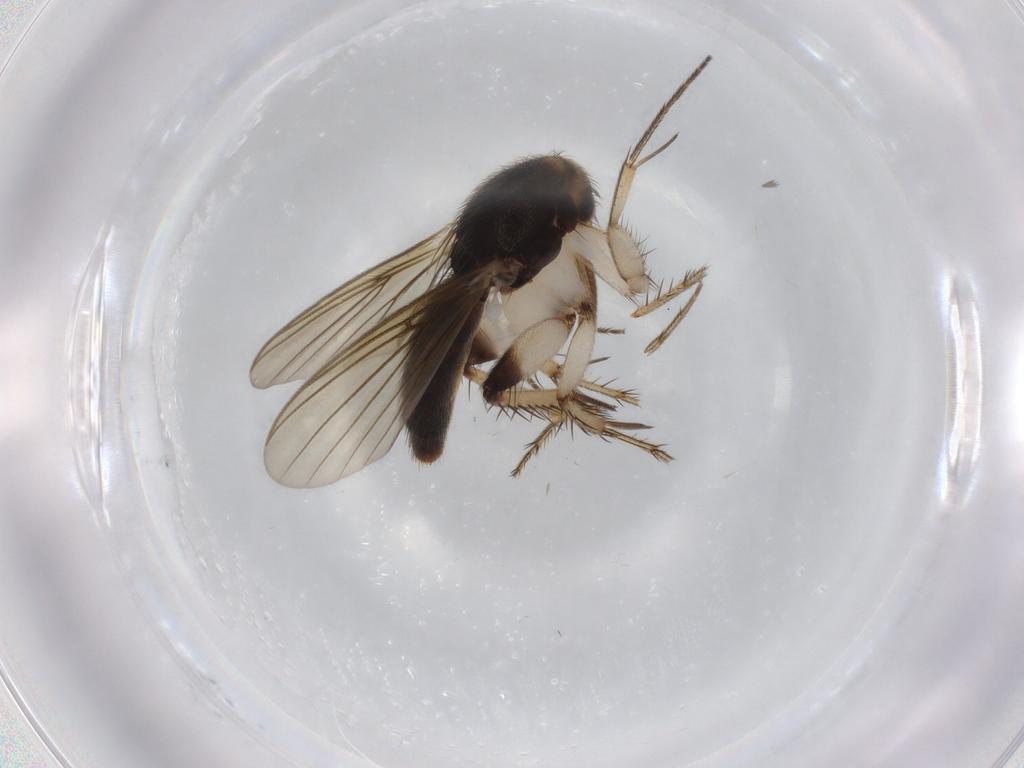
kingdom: Animalia
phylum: Arthropoda
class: Insecta
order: Diptera
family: Mycetophilidae
